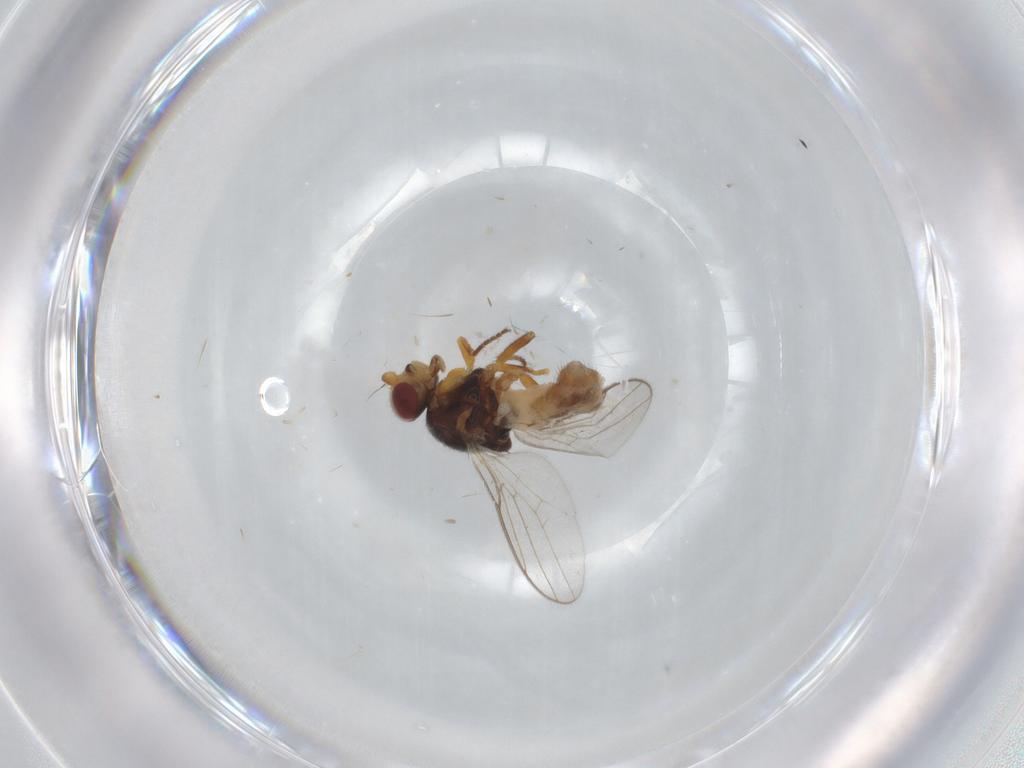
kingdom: Animalia
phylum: Arthropoda
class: Insecta
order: Diptera
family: Chloropidae
